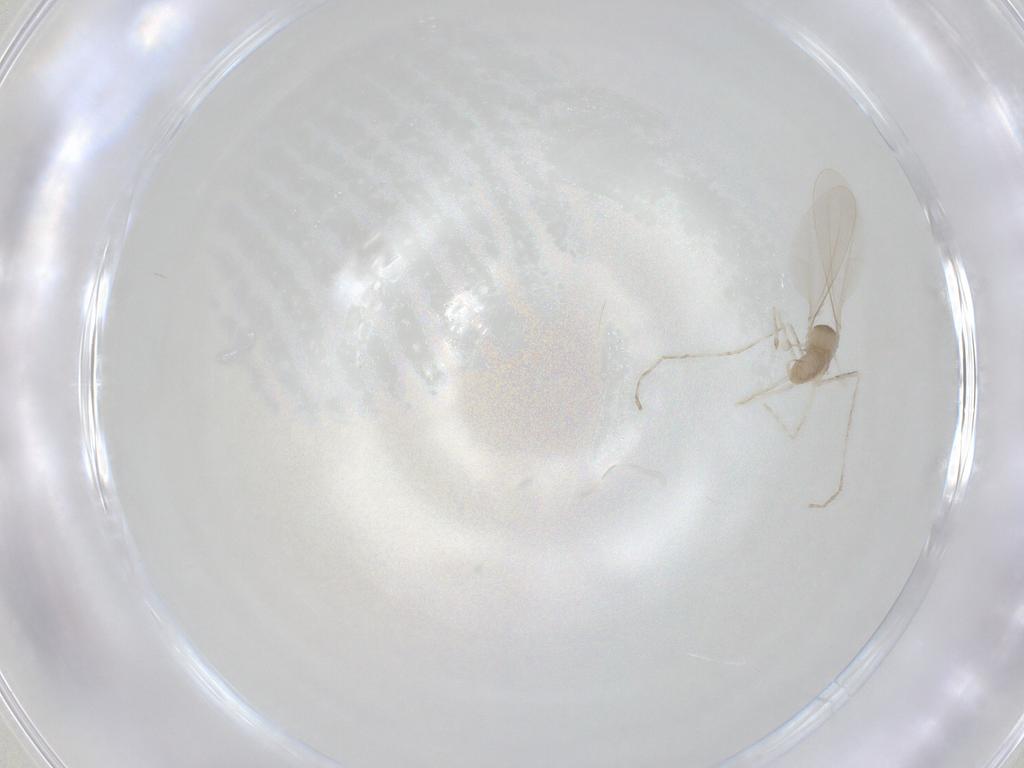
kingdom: Animalia
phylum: Arthropoda
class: Insecta
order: Diptera
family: Cecidomyiidae
